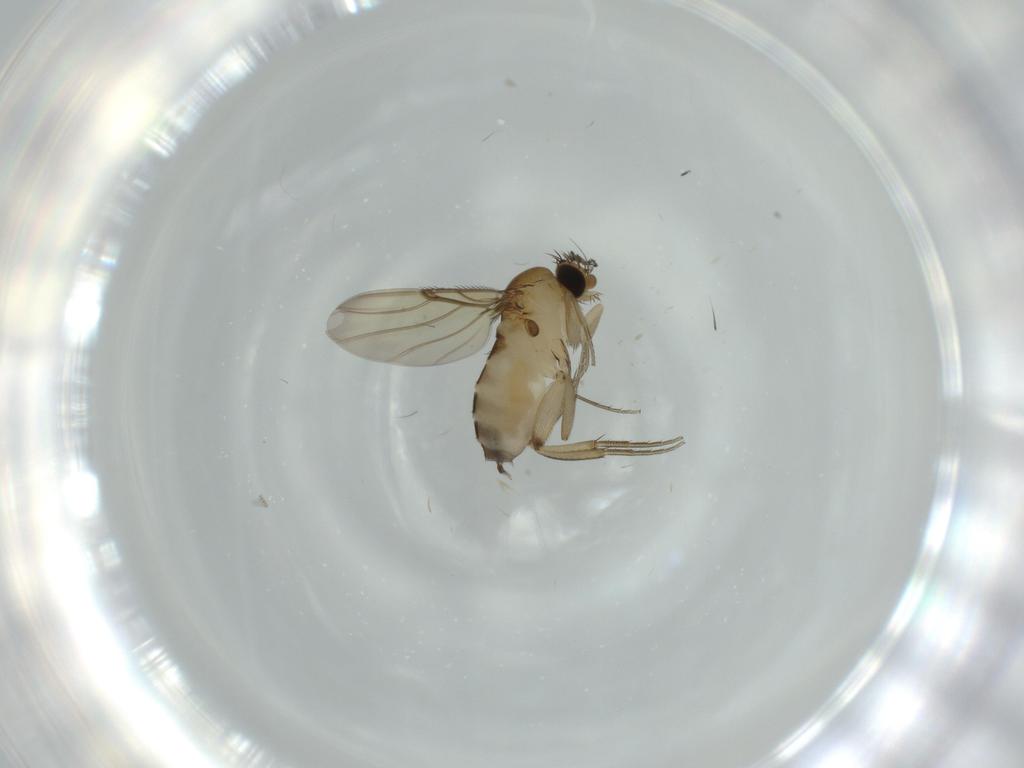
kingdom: Animalia
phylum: Arthropoda
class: Insecta
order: Diptera
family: Phoridae
